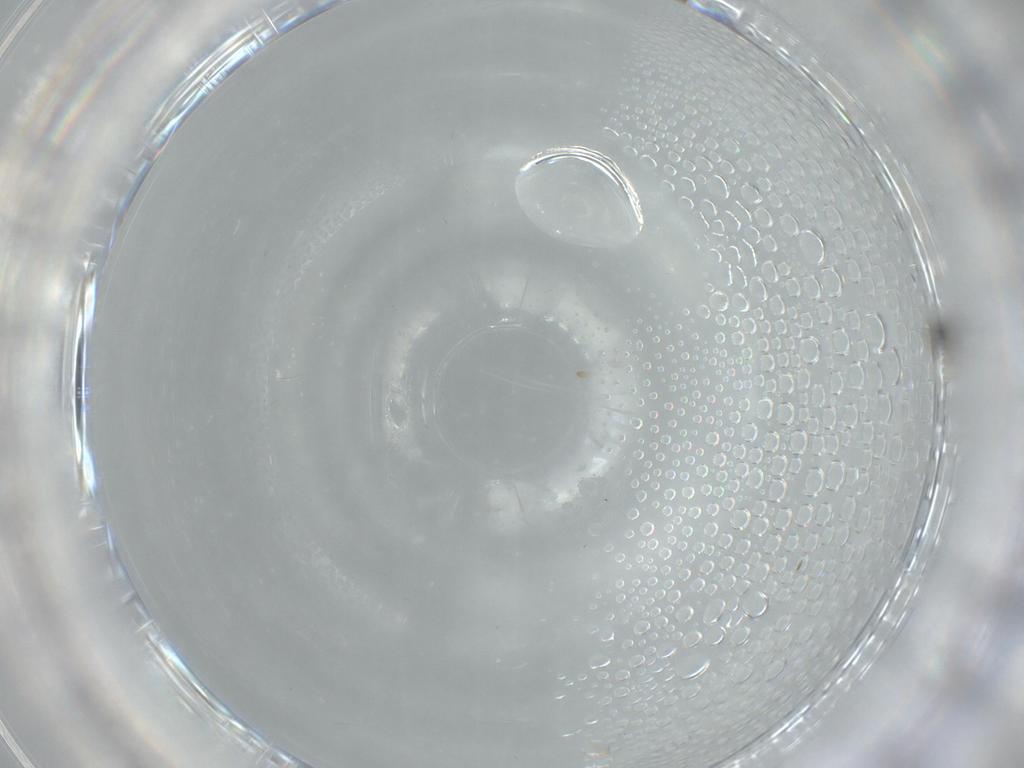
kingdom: Animalia
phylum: Arthropoda
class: Insecta
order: Diptera
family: Cecidomyiidae
